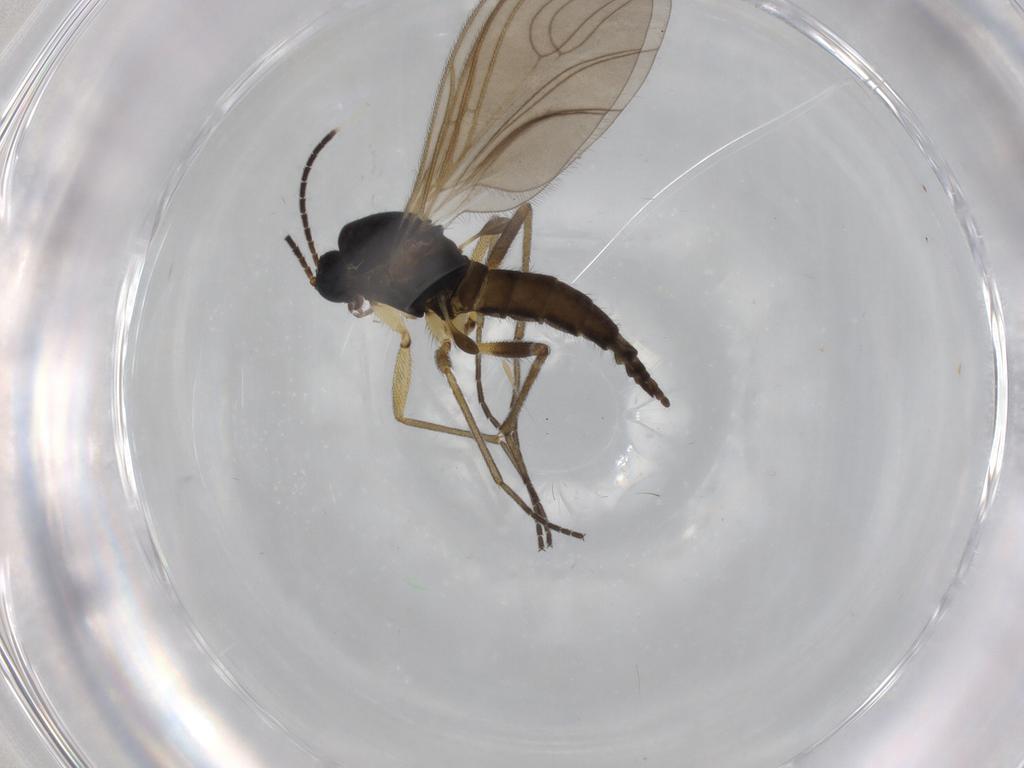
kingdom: Animalia
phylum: Arthropoda
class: Insecta
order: Diptera
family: Sciaridae
